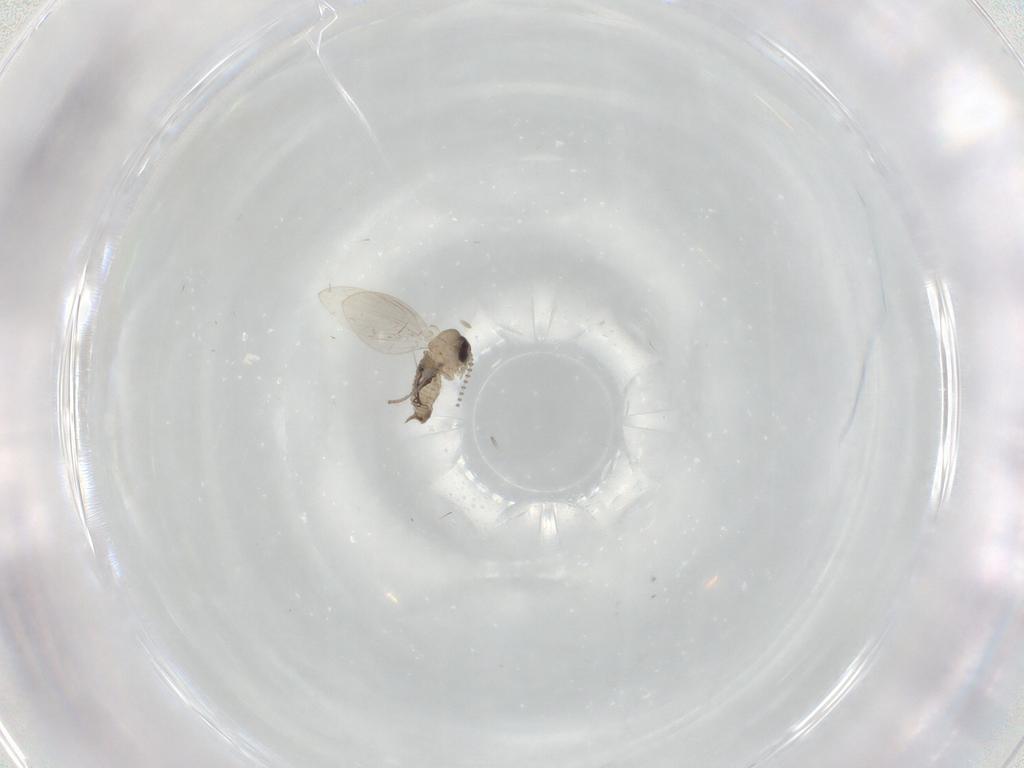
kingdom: Animalia
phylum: Arthropoda
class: Insecta
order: Diptera
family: Psychodidae
